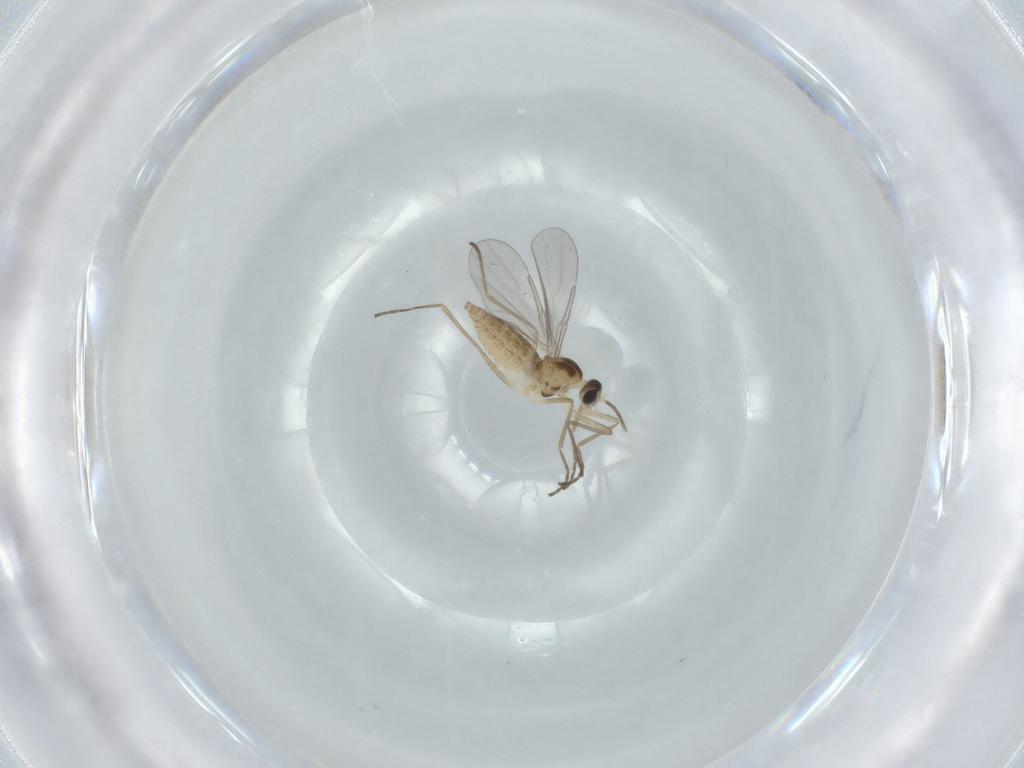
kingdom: Animalia
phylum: Arthropoda
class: Insecta
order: Diptera
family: Cecidomyiidae
